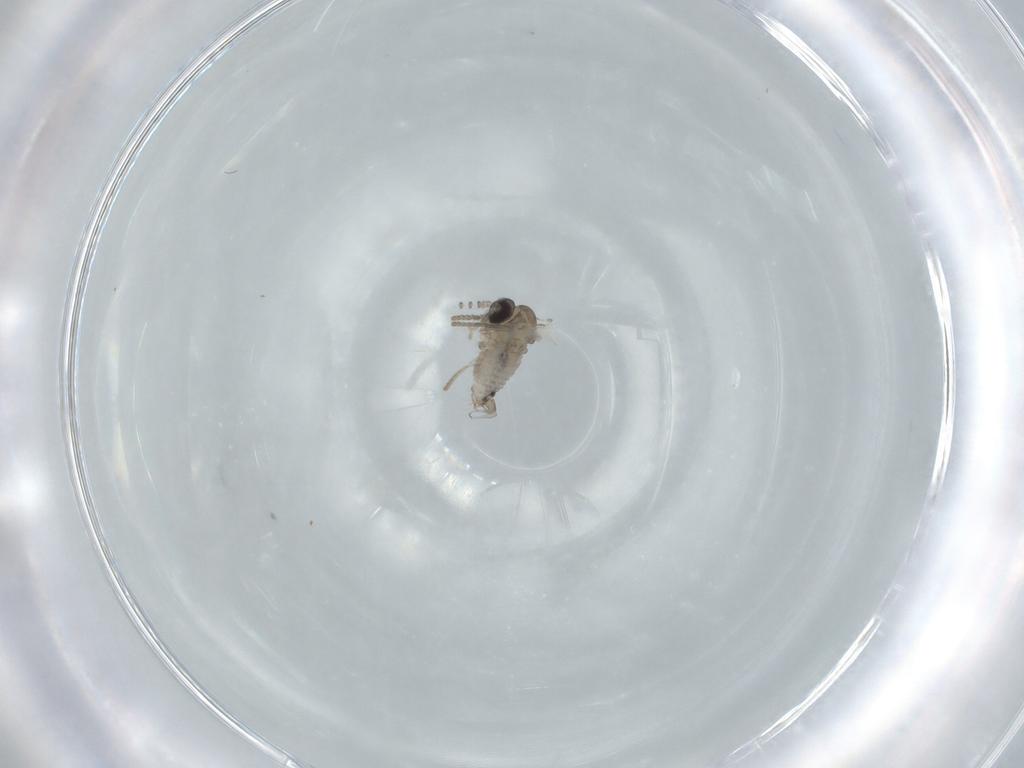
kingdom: Animalia
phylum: Arthropoda
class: Insecta
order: Diptera
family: Psychodidae
